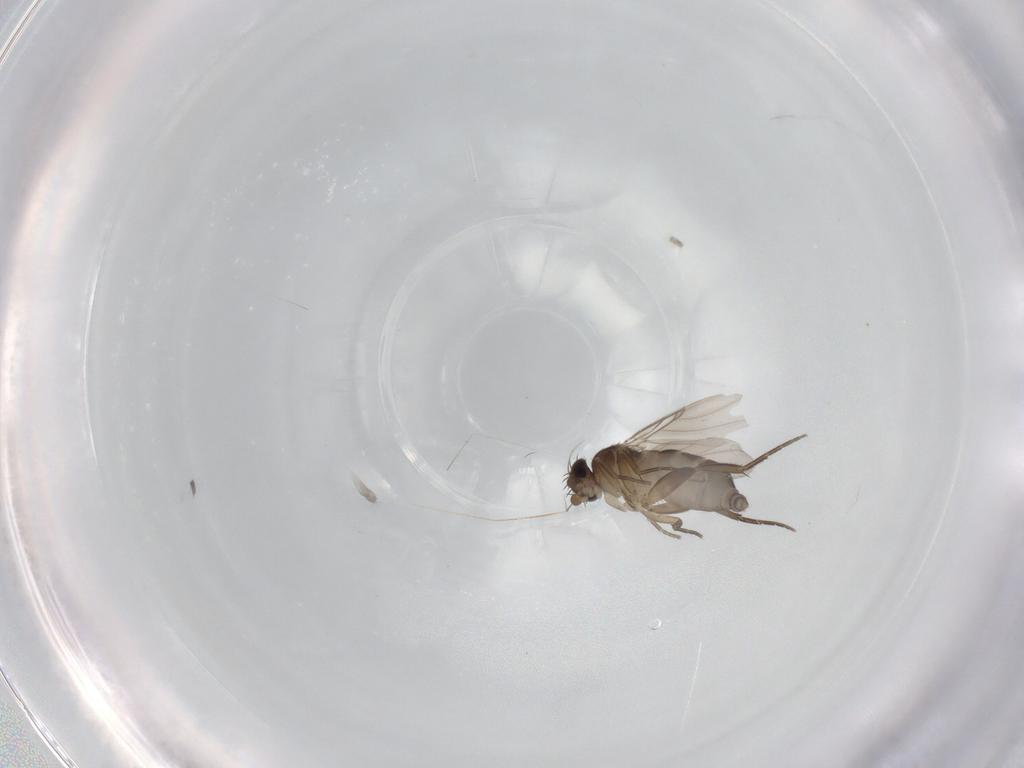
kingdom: Animalia
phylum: Arthropoda
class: Insecta
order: Diptera
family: Phoridae
